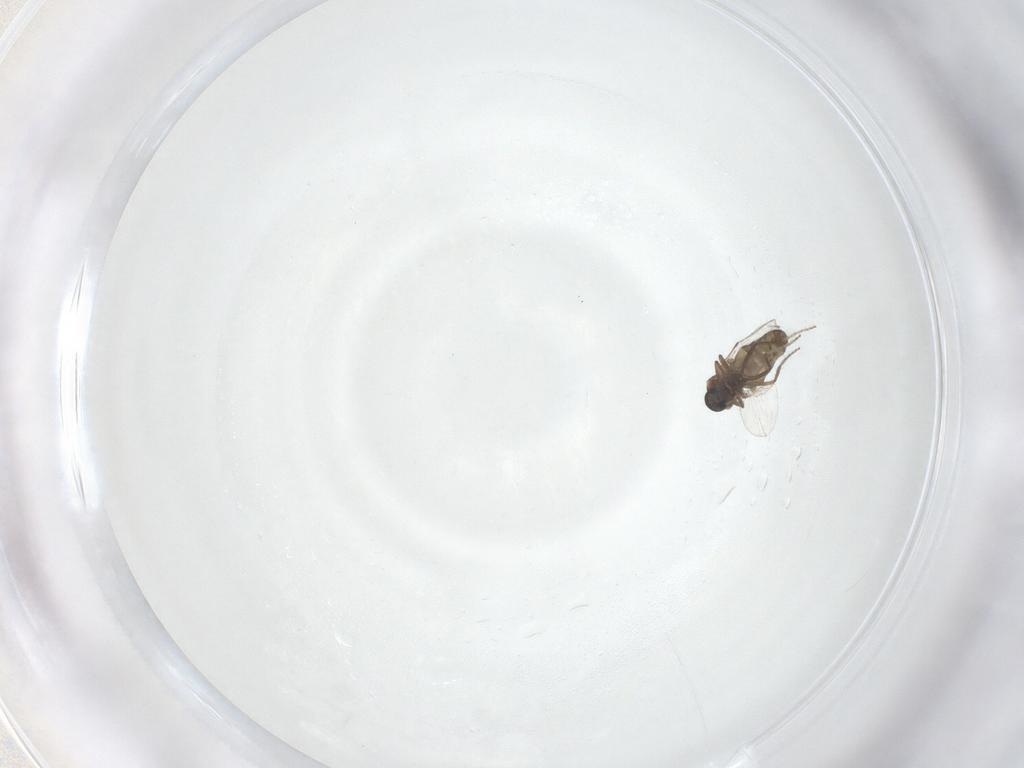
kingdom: Animalia
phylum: Arthropoda
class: Insecta
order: Diptera
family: Ceratopogonidae
